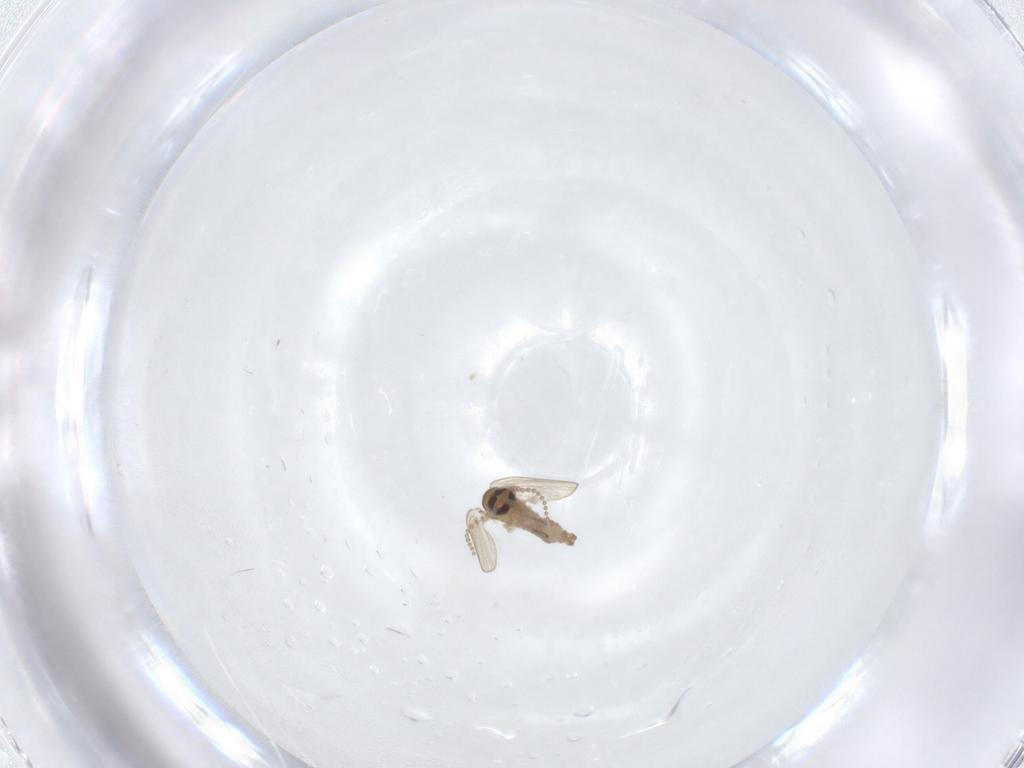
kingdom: Animalia
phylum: Arthropoda
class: Insecta
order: Diptera
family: Psychodidae
